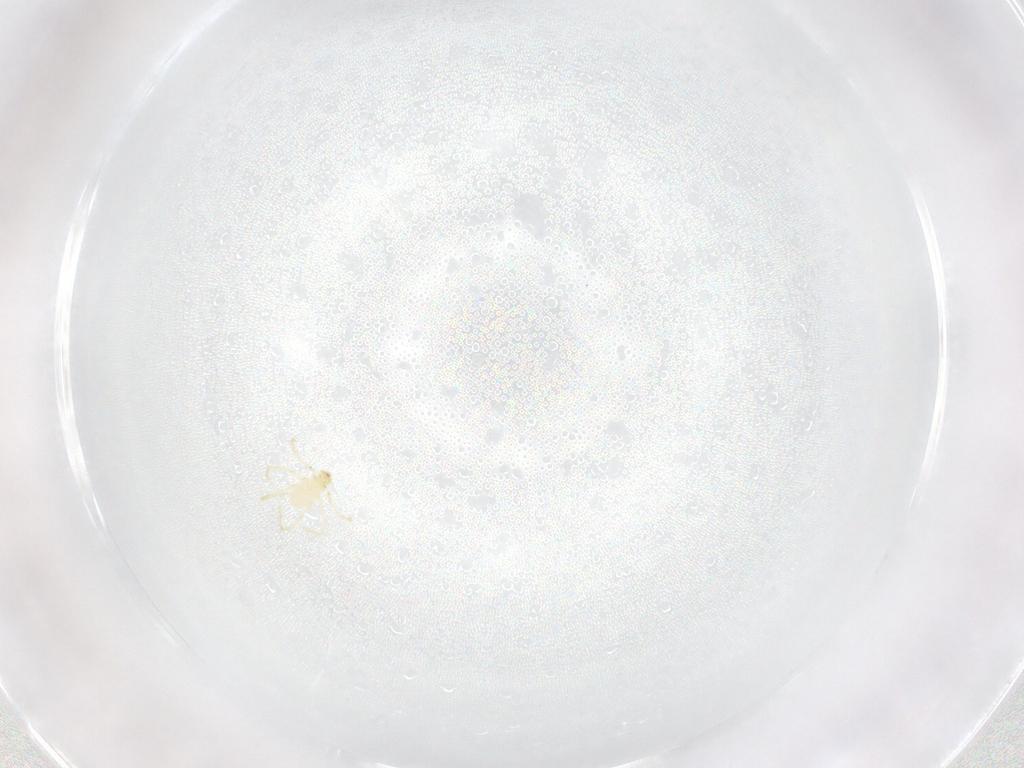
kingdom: Animalia
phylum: Arthropoda
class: Insecta
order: Diptera
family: Cecidomyiidae
